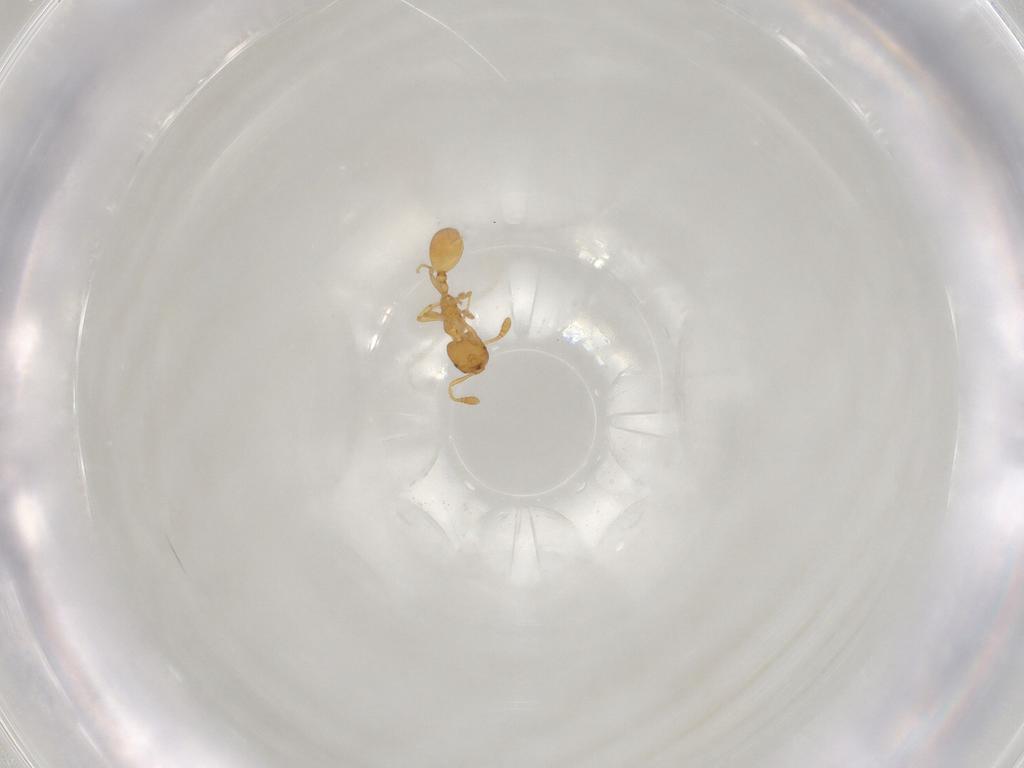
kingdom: Animalia
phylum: Arthropoda
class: Insecta
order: Hymenoptera
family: Formicidae
